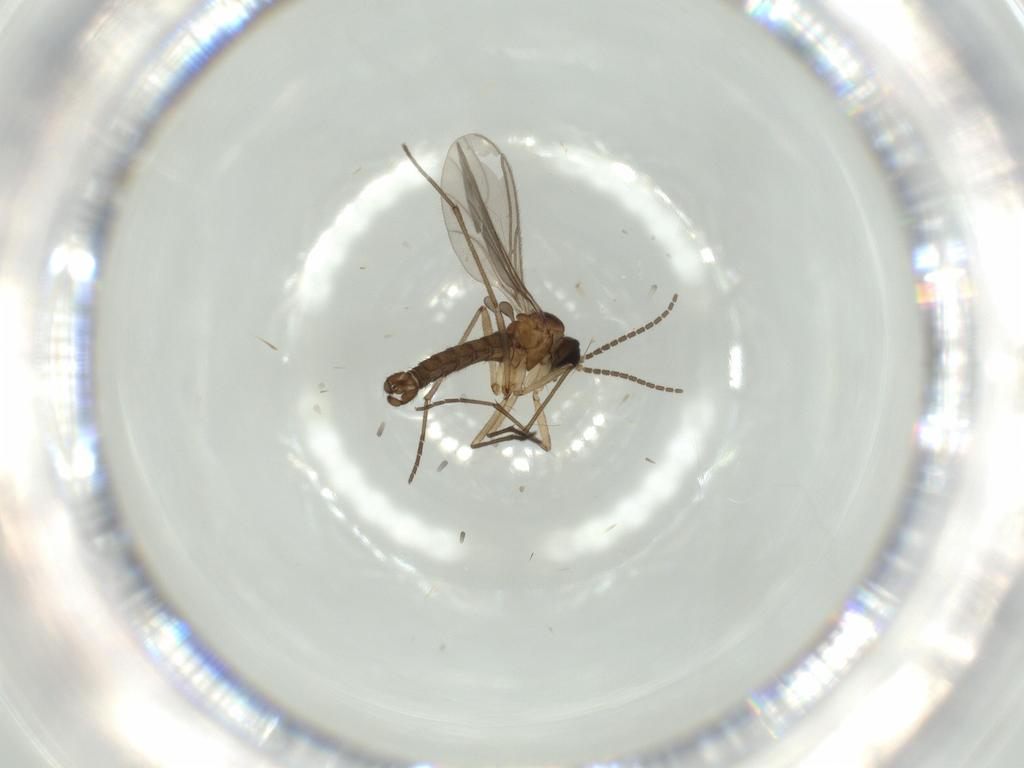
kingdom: Animalia
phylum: Arthropoda
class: Insecta
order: Diptera
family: Sciaridae
